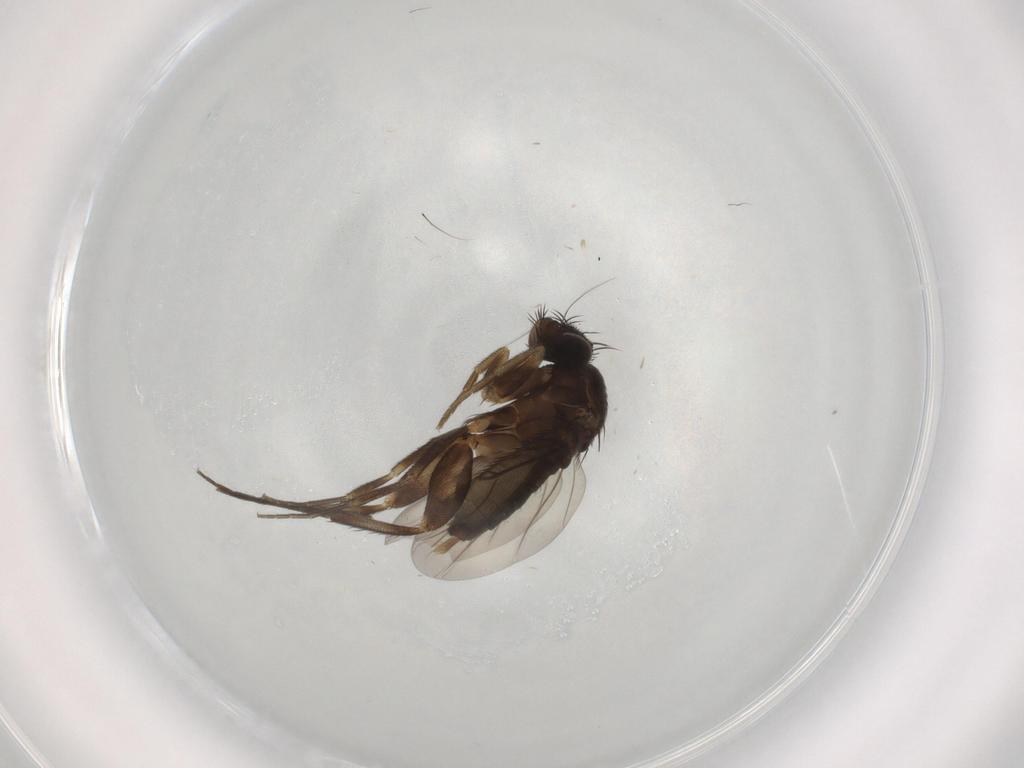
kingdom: Animalia
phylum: Arthropoda
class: Insecta
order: Diptera
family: Phoridae
